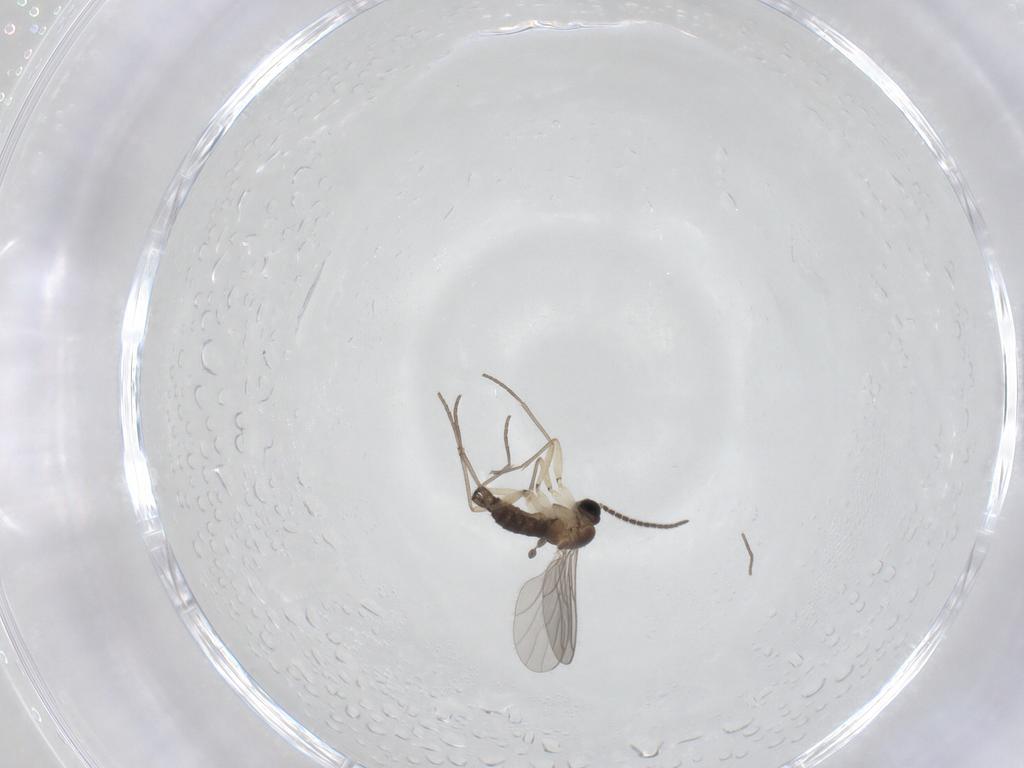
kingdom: Animalia
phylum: Arthropoda
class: Insecta
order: Diptera
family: Sciaridae
